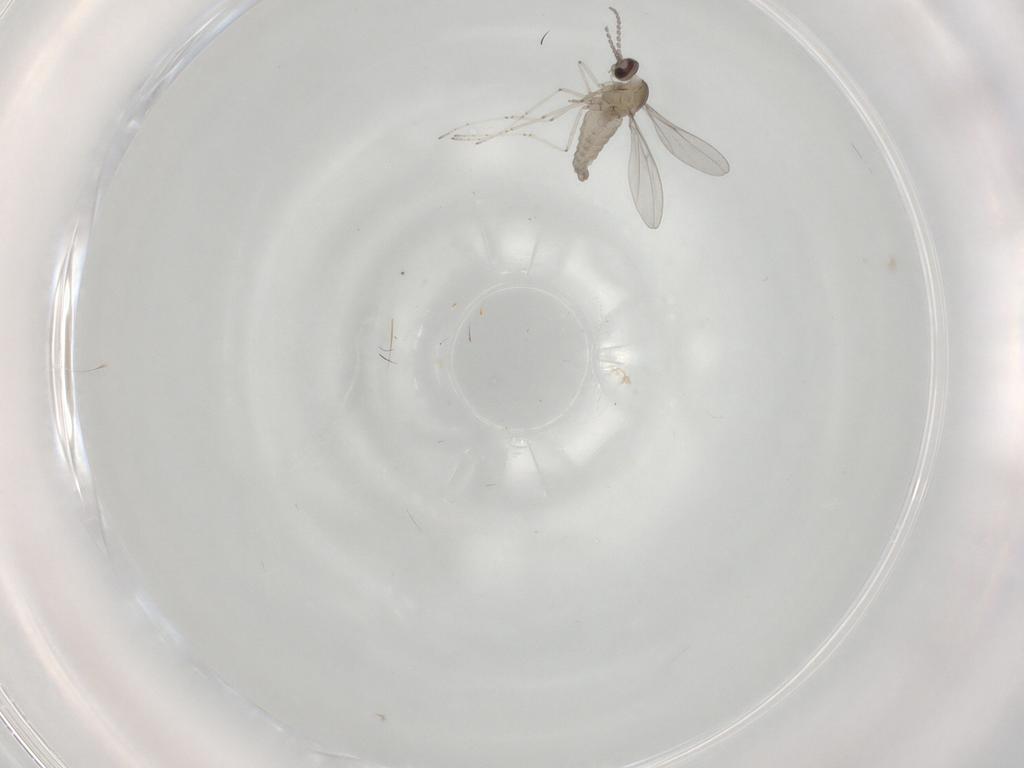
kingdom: Animalia
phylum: Arthropoda
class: Insecta
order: Diptera
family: Cecidomyiidae
